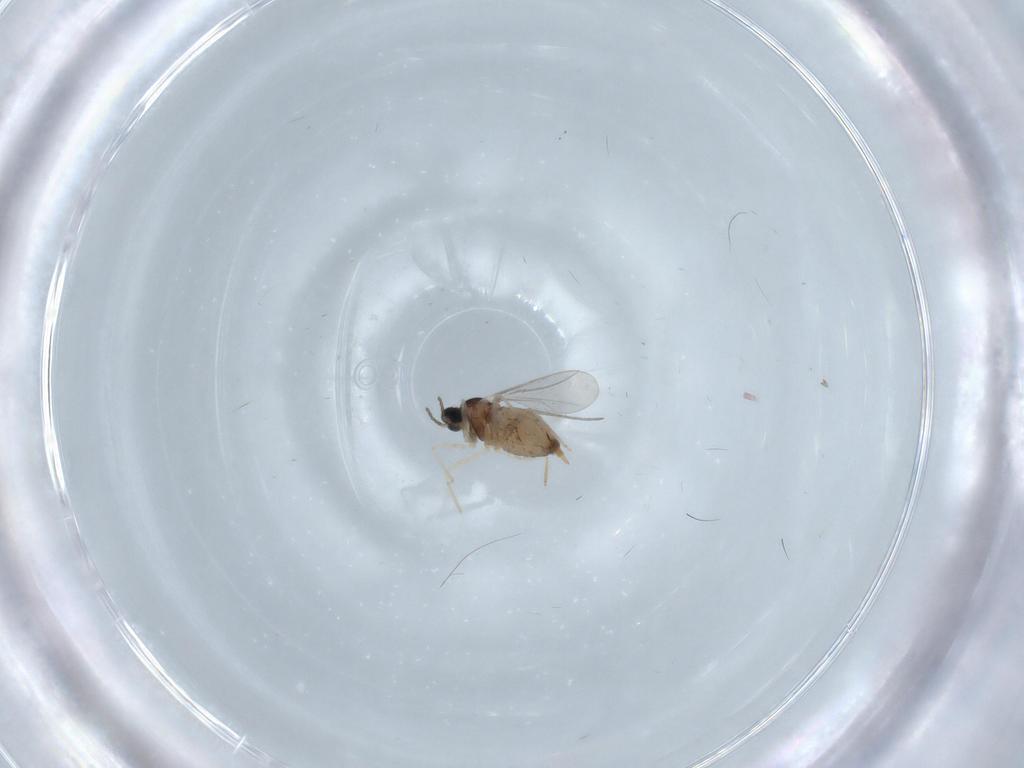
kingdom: Animalia
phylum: Arthropoda
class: Insecta
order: Diptera
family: Cecidomyiidae
